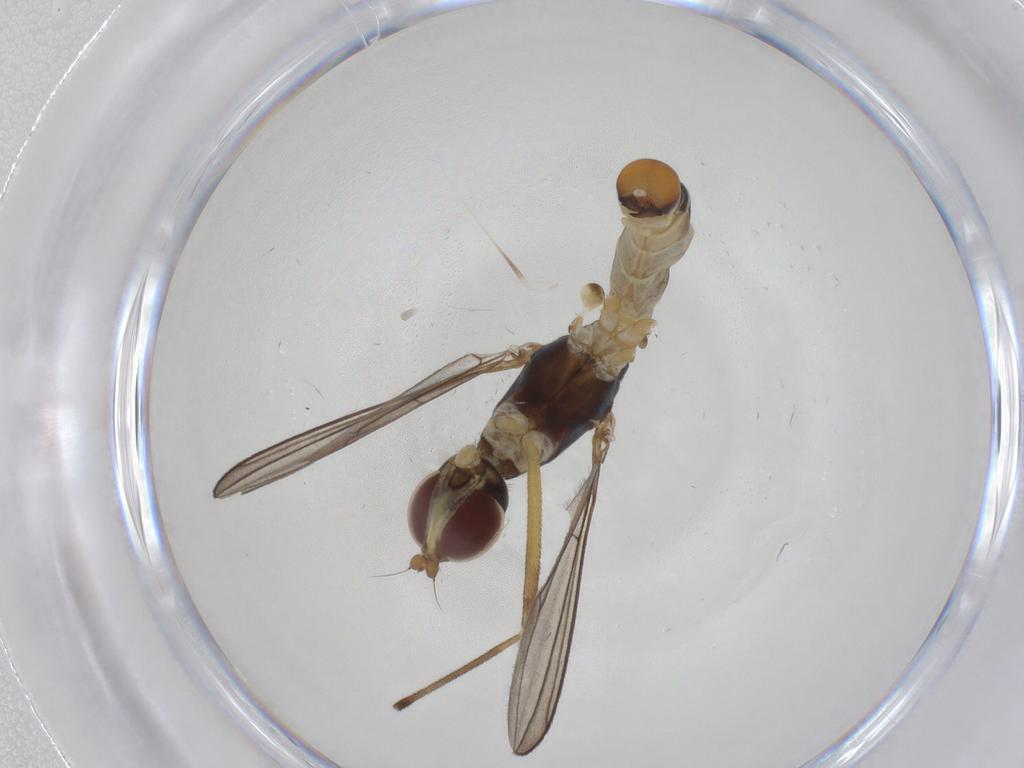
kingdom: Animalia
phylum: Arthropoda
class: Insecta
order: Diptera
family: Micropezidae
